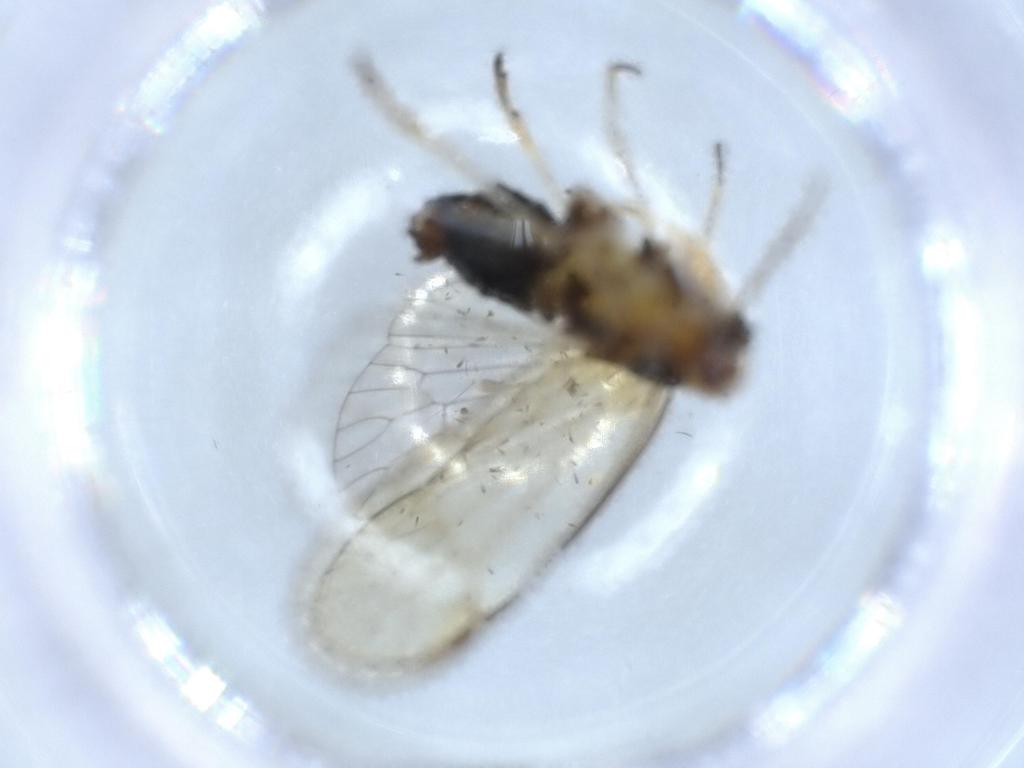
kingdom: Animalia
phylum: Arthropoda
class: Insecta
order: Hemiptera
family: Kinnaridae
